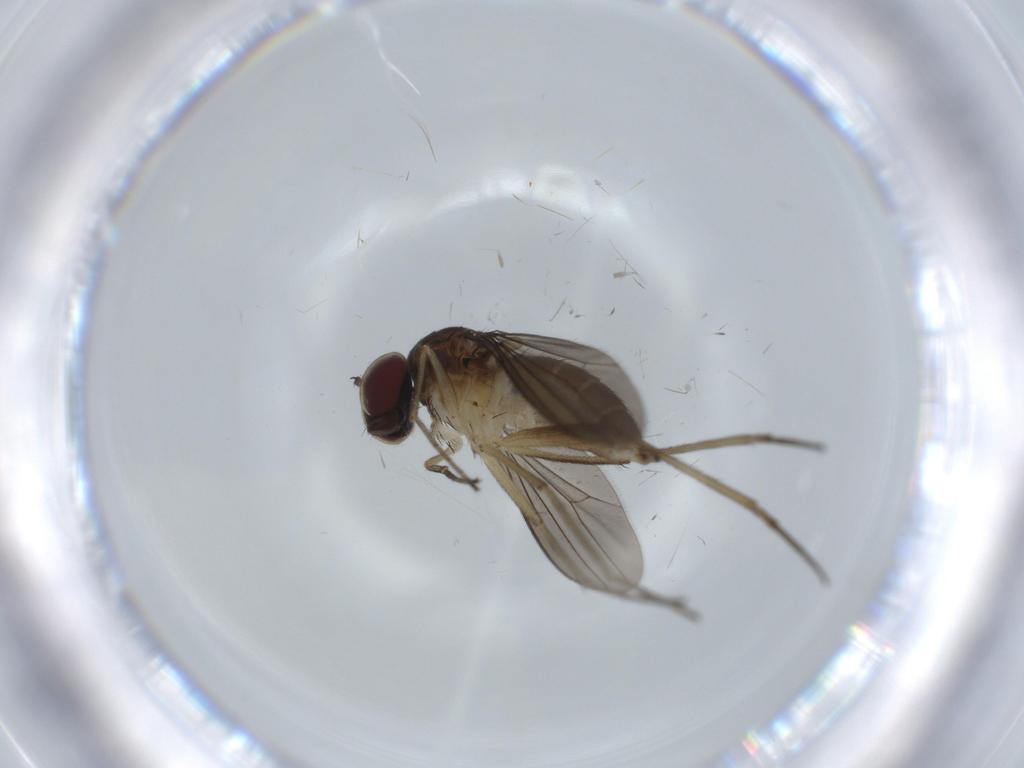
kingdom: Animalia
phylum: Arthropoda
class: Insecta
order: Diptera
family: Dolichopodidae
